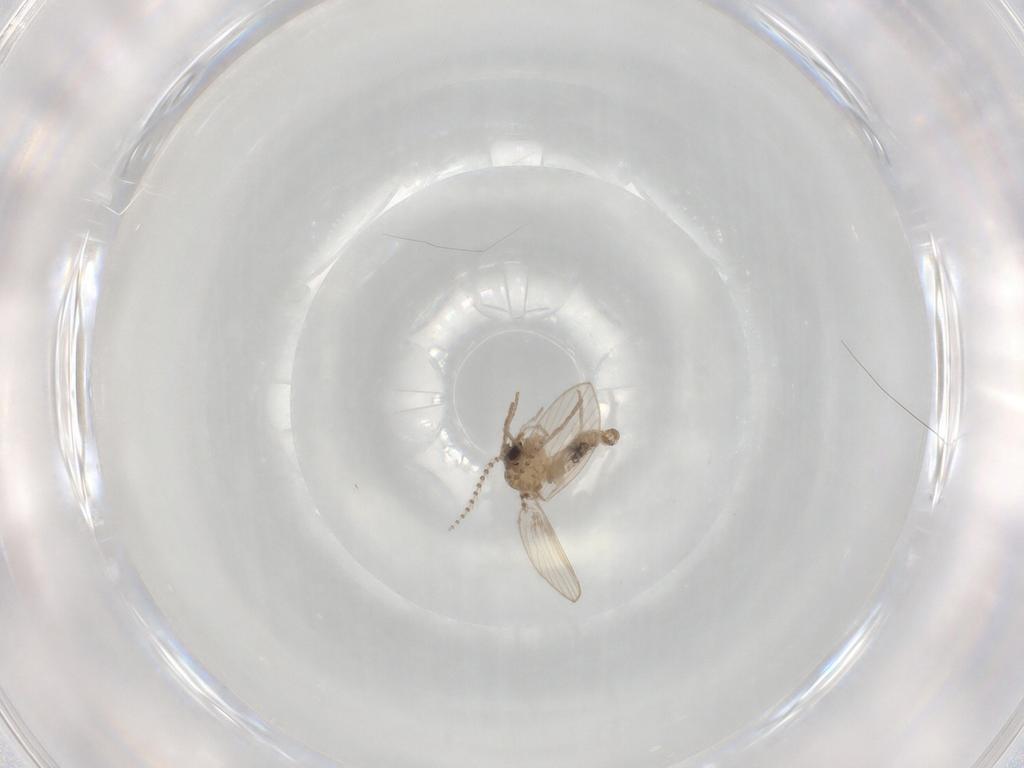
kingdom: Animalia
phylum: Arthropoda
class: Insecta
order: Diptera
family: Psychodidae
